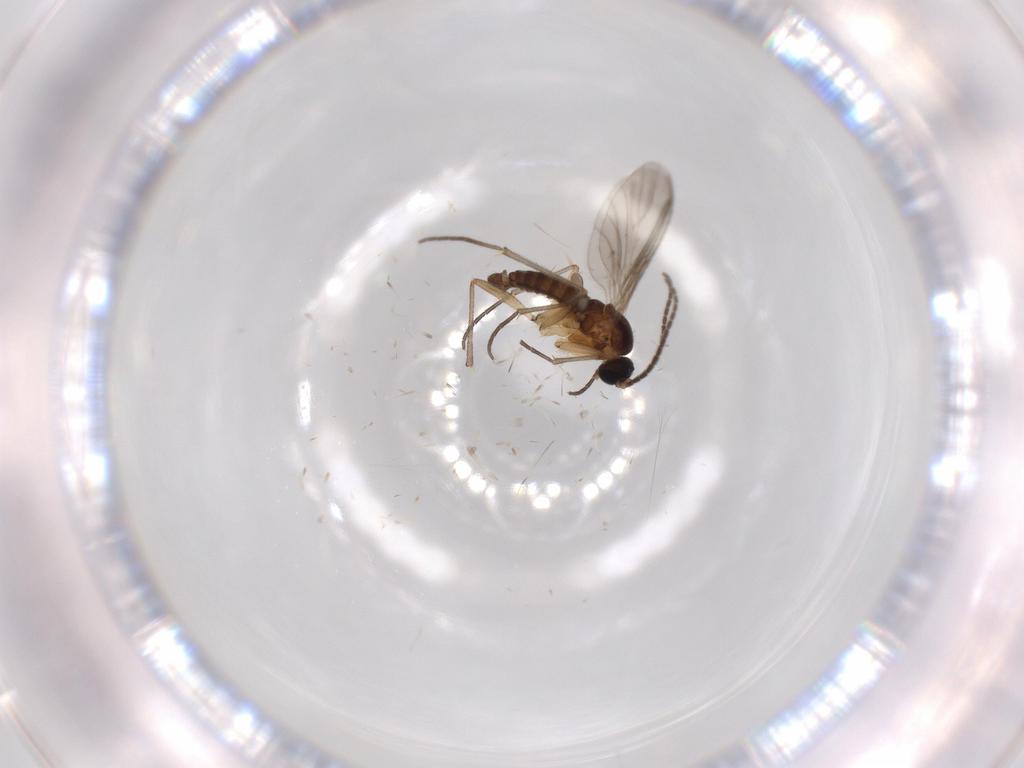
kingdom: Animalia
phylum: Arthropoda
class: Insecta
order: Diptera
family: Sciaridae
